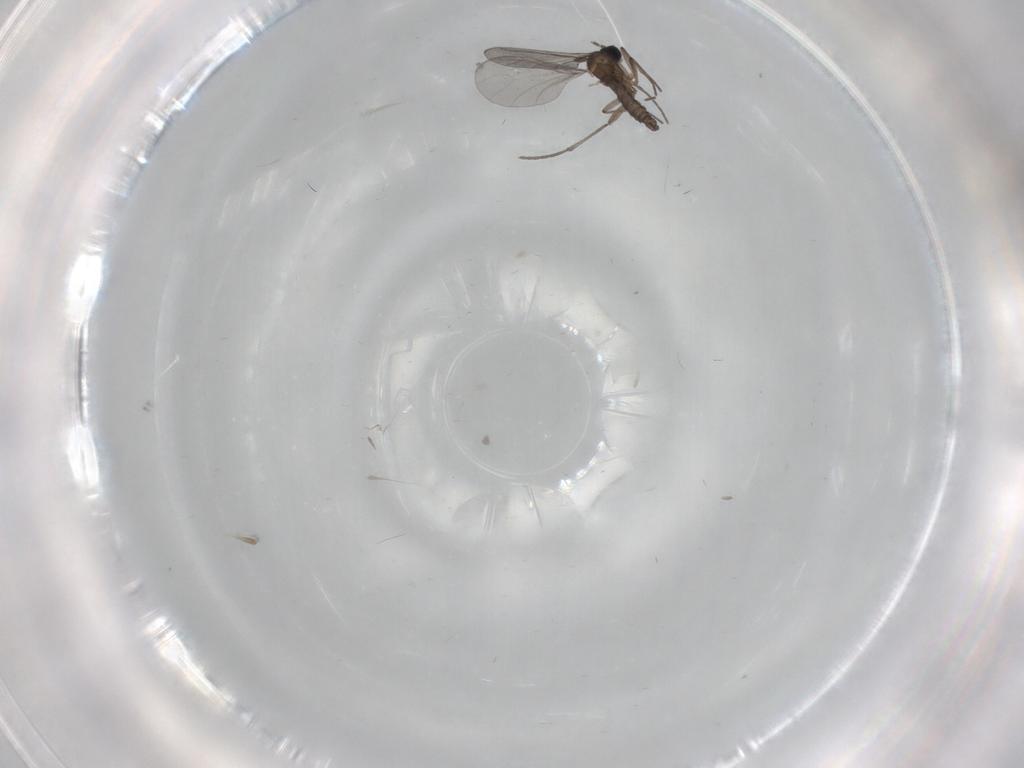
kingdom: Animalia
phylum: Arthropoda
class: Insecta
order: Diptera
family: Sciaridae
